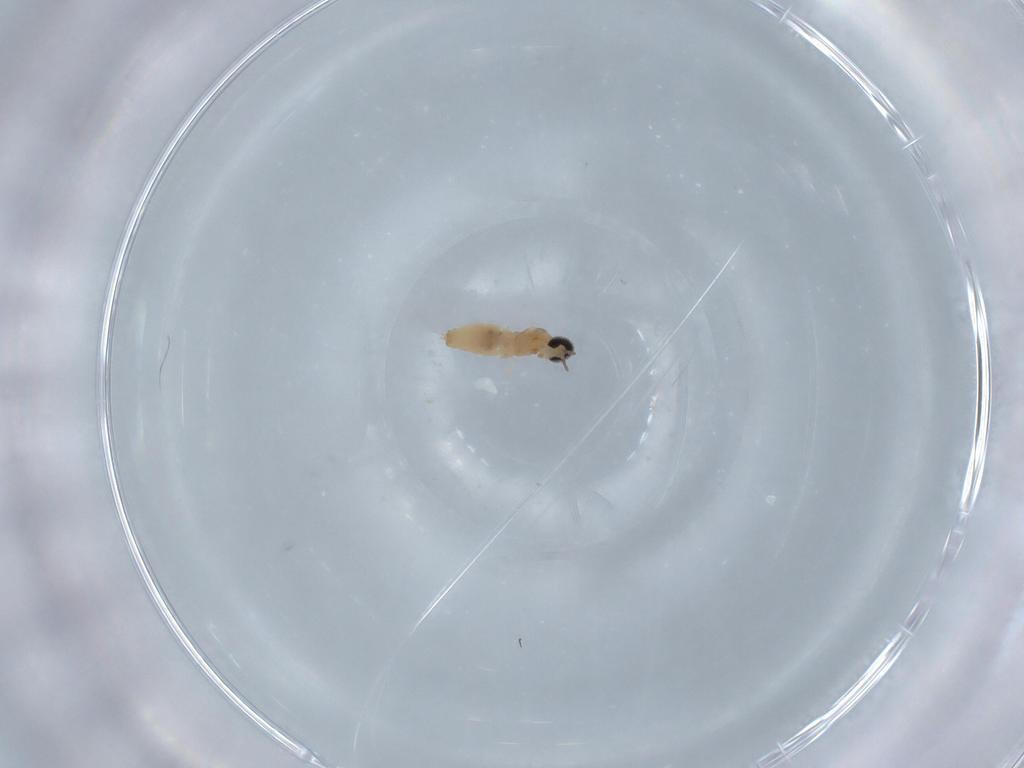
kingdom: Animalia
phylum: Arthropoda
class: Insecta
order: Diptera
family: Cecidomyiidae
